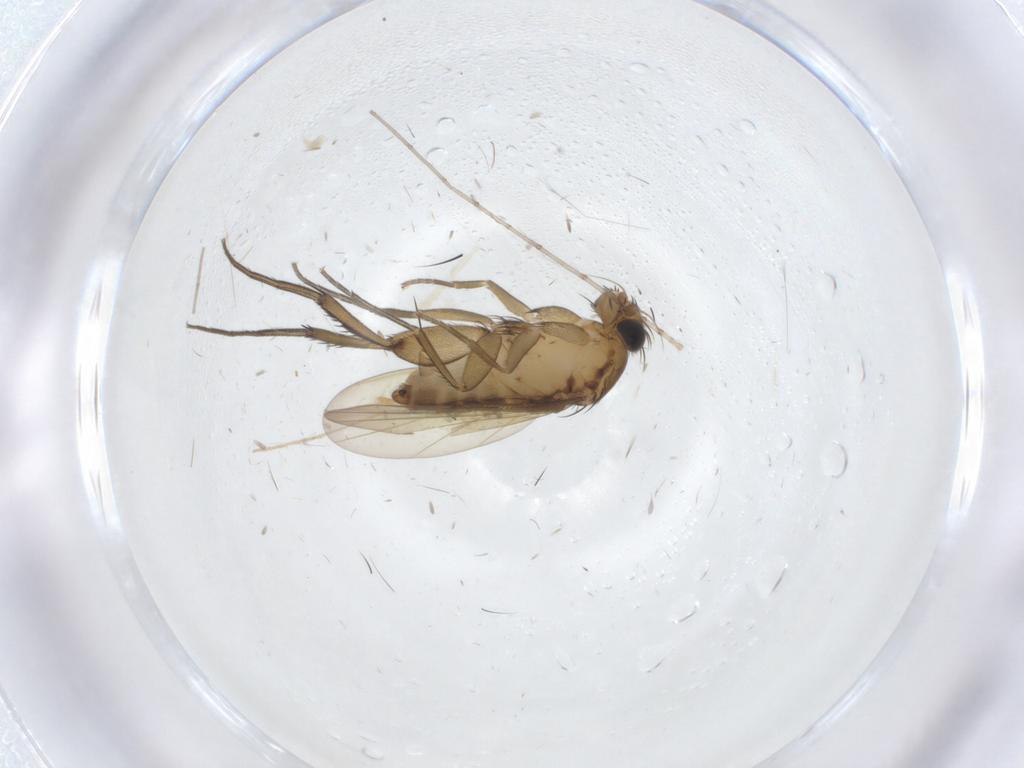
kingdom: Animalia
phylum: Arthropoda
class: Insecta
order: Diptera
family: Phoridae
